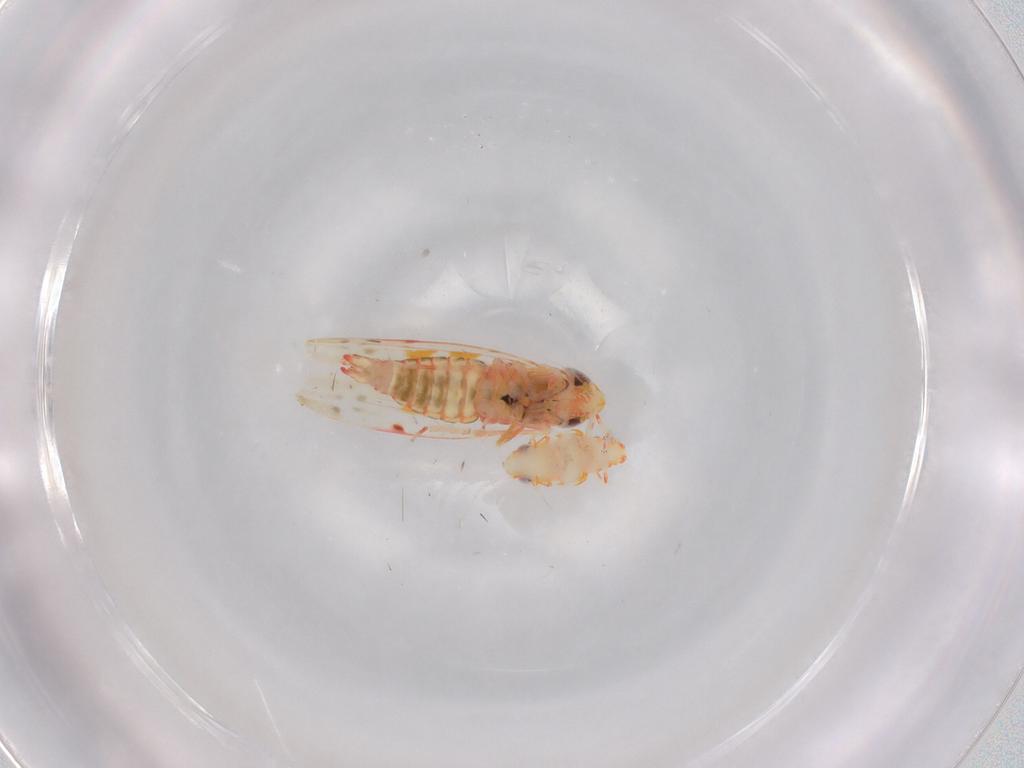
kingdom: Animalia
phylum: Arthropoda
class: Insecta
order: Hemiptera
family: Cicadellidae
